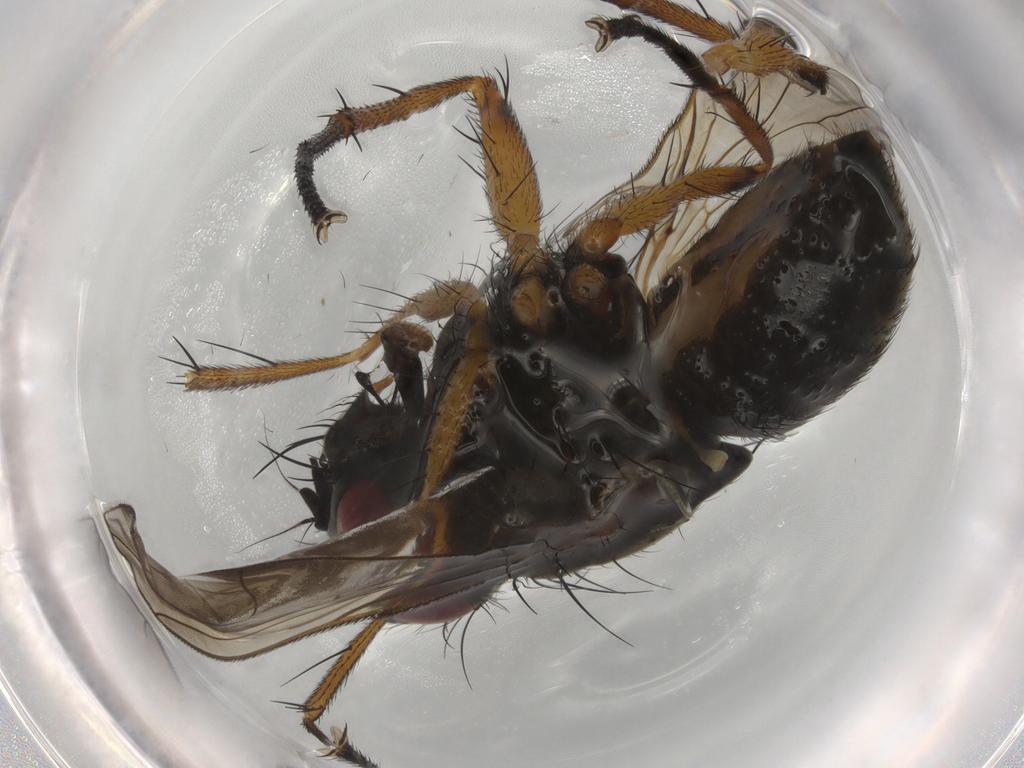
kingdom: Animalia
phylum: Arthropoda
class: Insecta
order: Diptera
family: Muscidae
